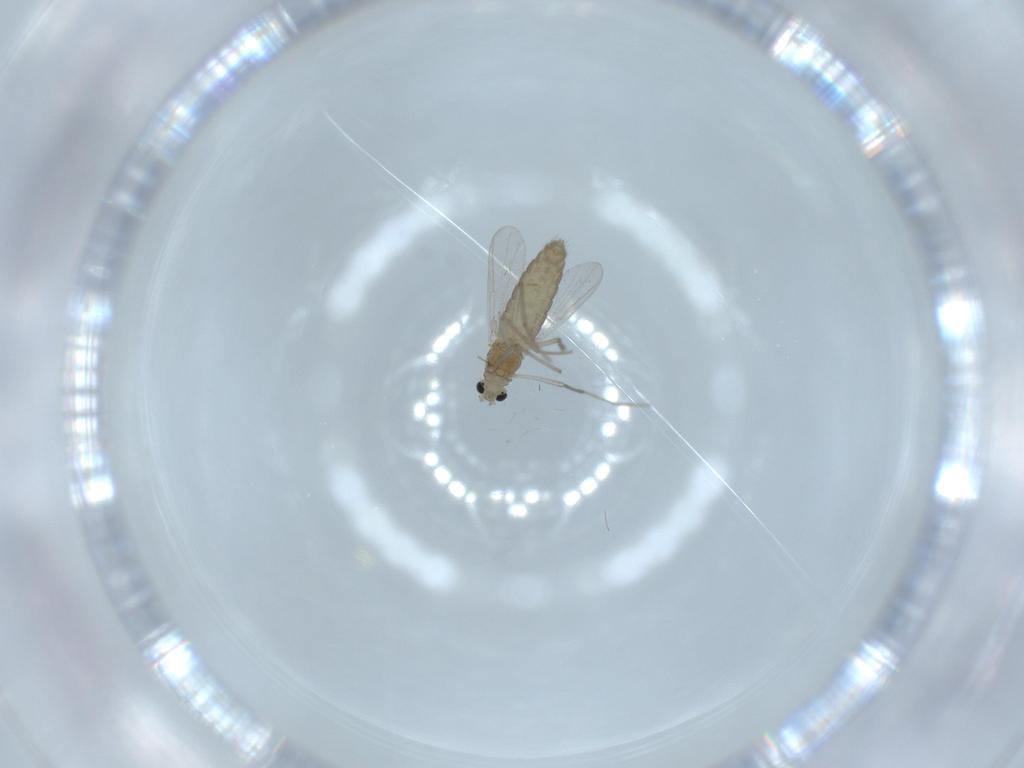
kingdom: Animalia
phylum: Arthropoda
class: Insecta
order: Diptera
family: Chironomidae
